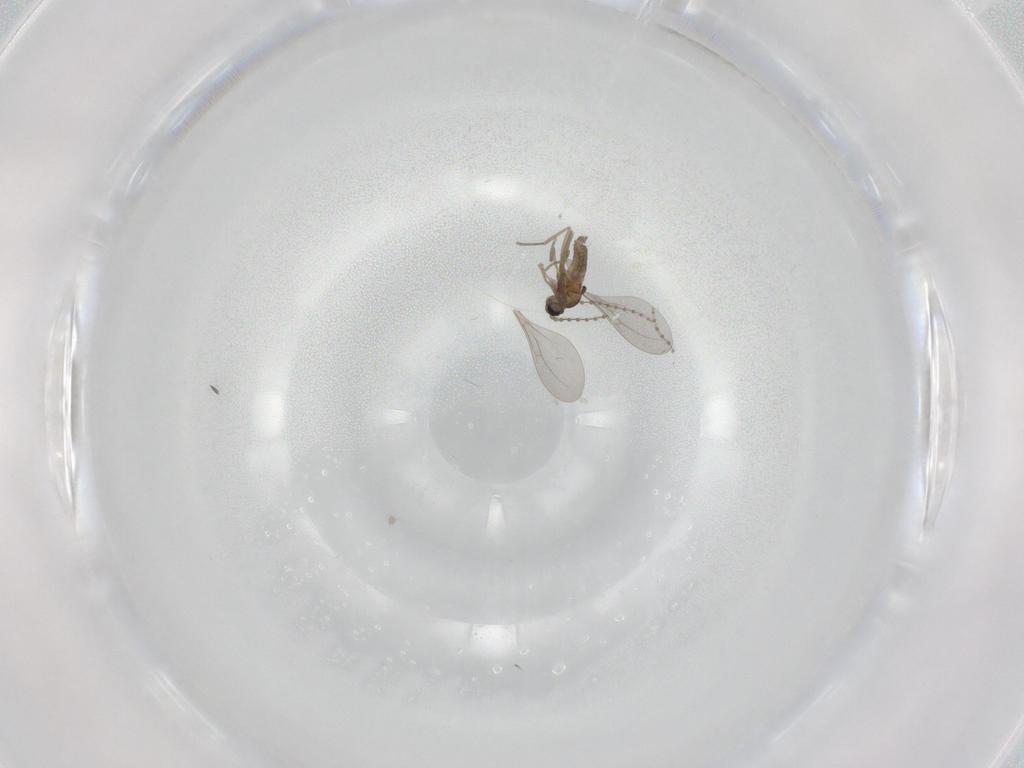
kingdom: Animalia
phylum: Arthropoda
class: Insecta
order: Diptera
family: Cecidomyiidae
